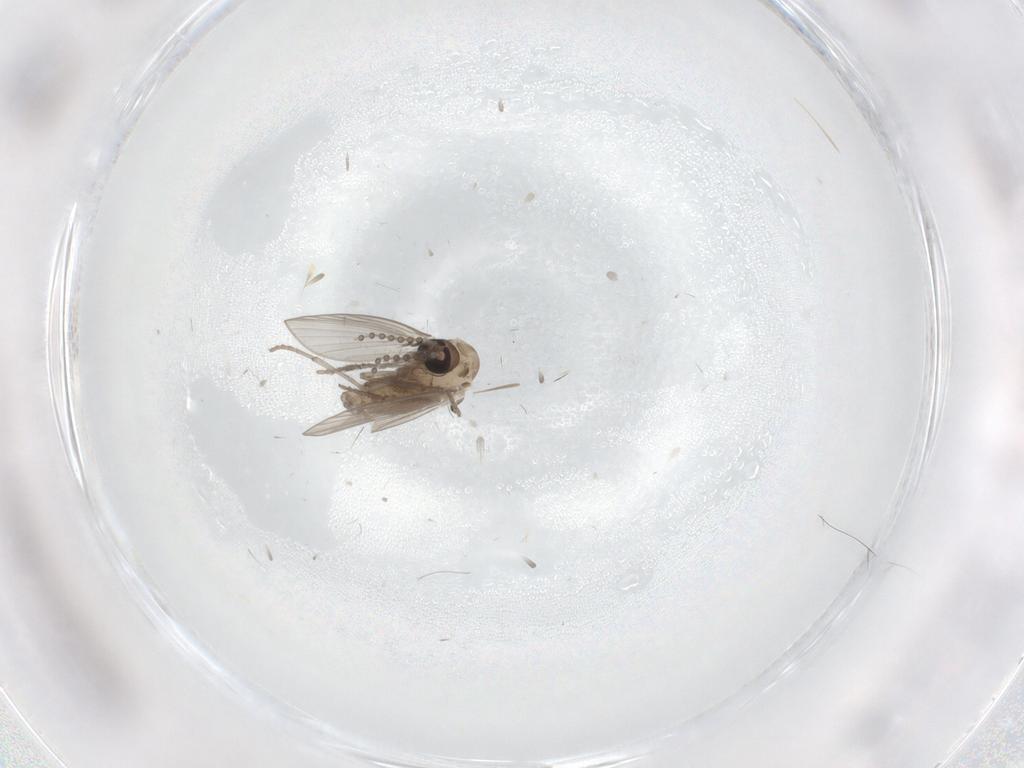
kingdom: Animalia
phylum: Arthropoda
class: Insecta
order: Diptera
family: Psychodidae
